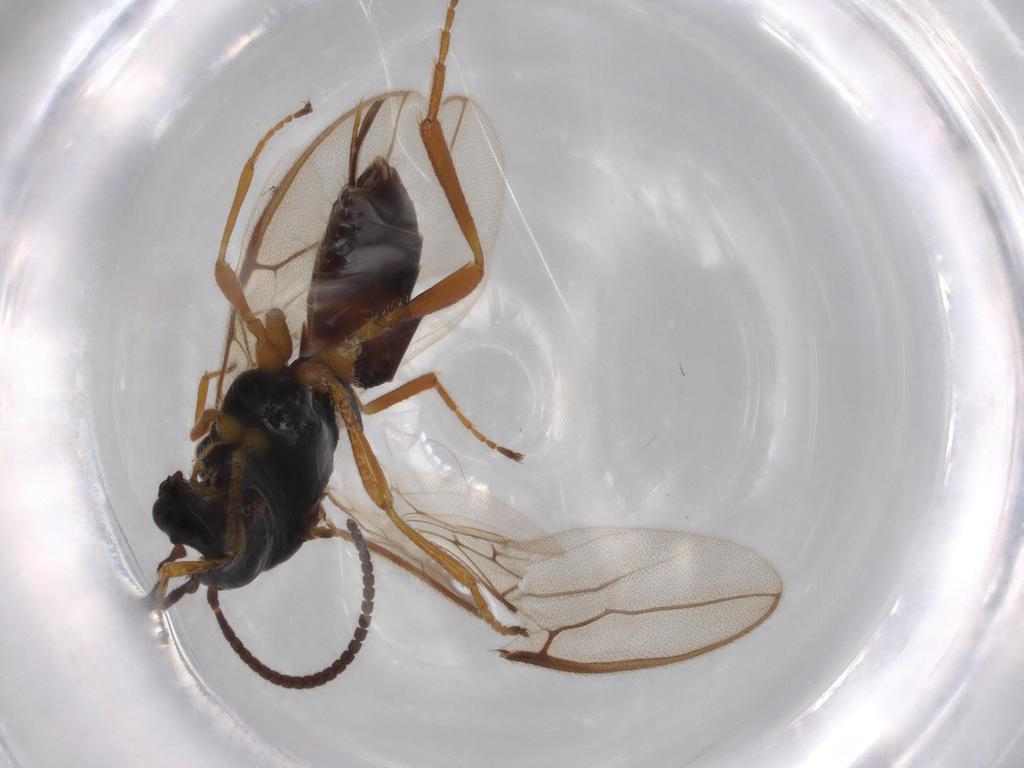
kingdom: Animalia
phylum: Arthropoda
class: Insecta
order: Hymenoptera
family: Braconidae
